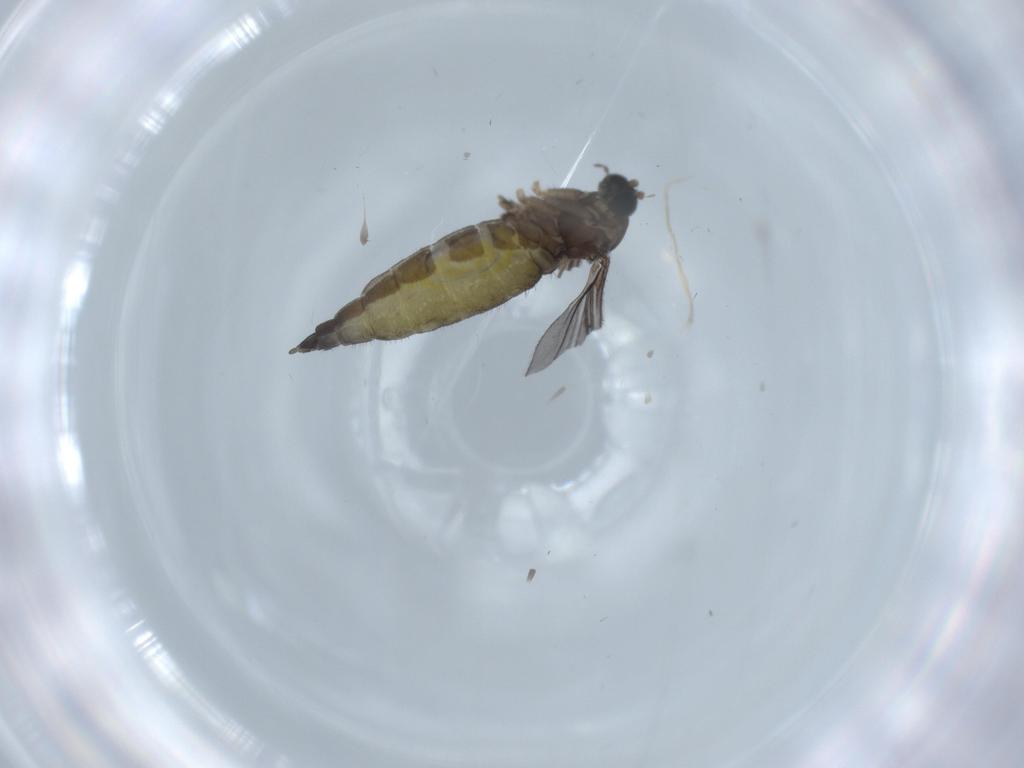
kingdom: Animalia
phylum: Arthropoda
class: Insecta
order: Diptera
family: Sciaridae
